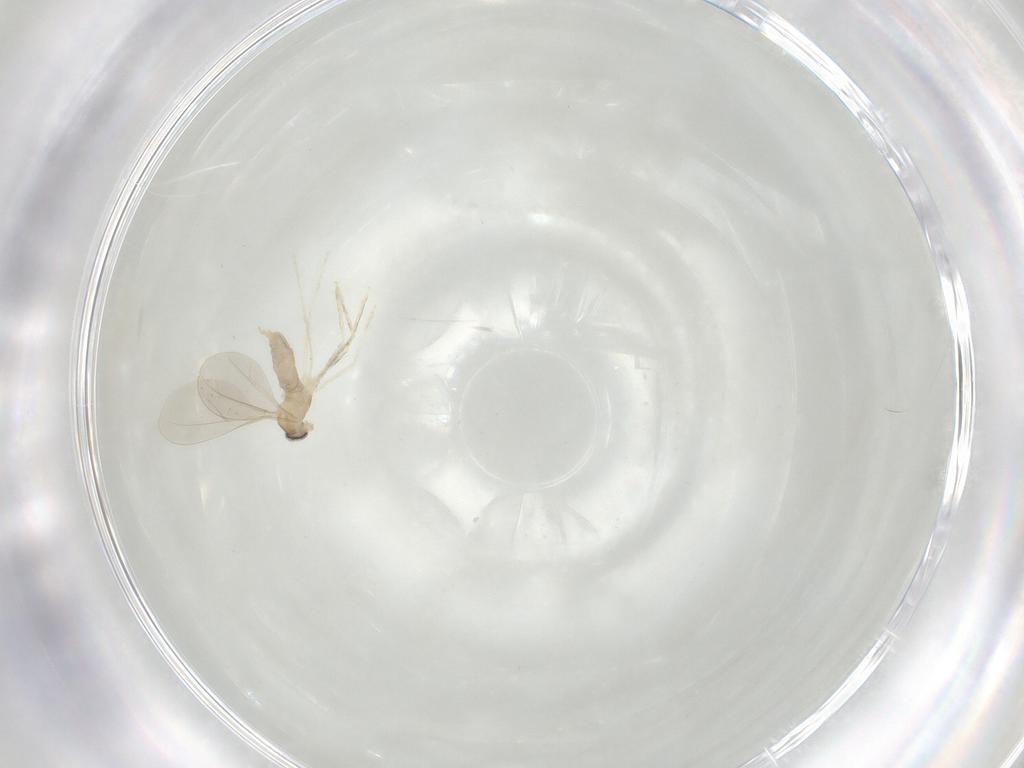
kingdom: Animalia
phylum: Arthropoda
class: Insecta
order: Diptera
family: Cecidomyiidae
